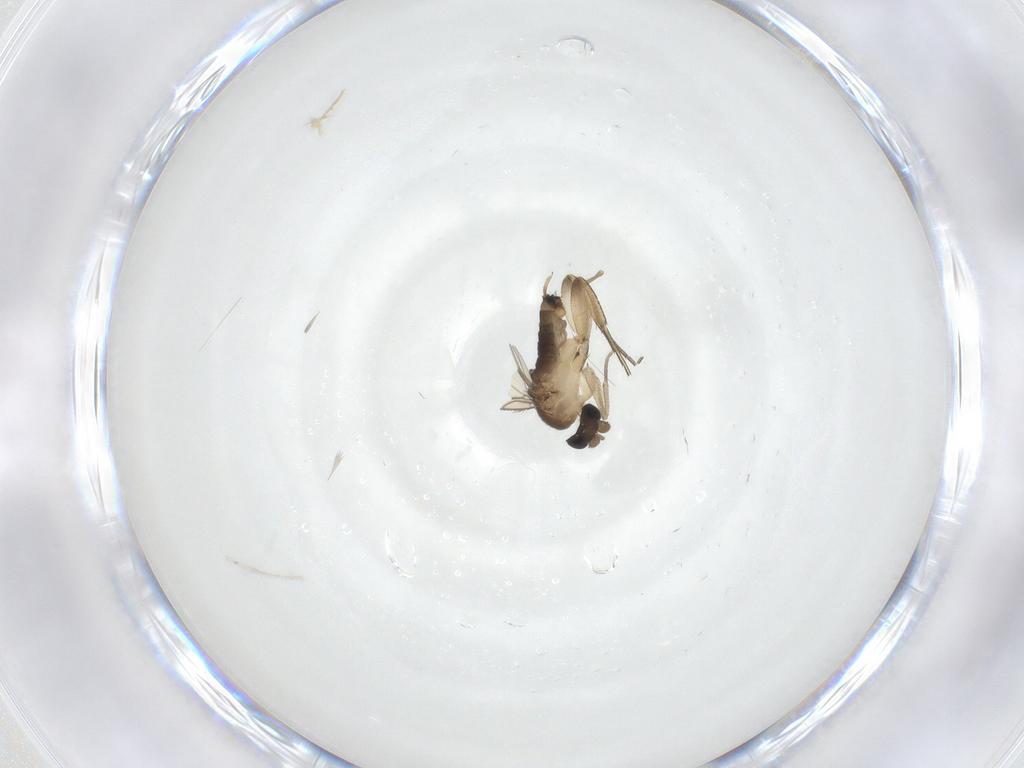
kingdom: Animalia
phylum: Arthropoda
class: Insecta
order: Diptera
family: Phoridae
